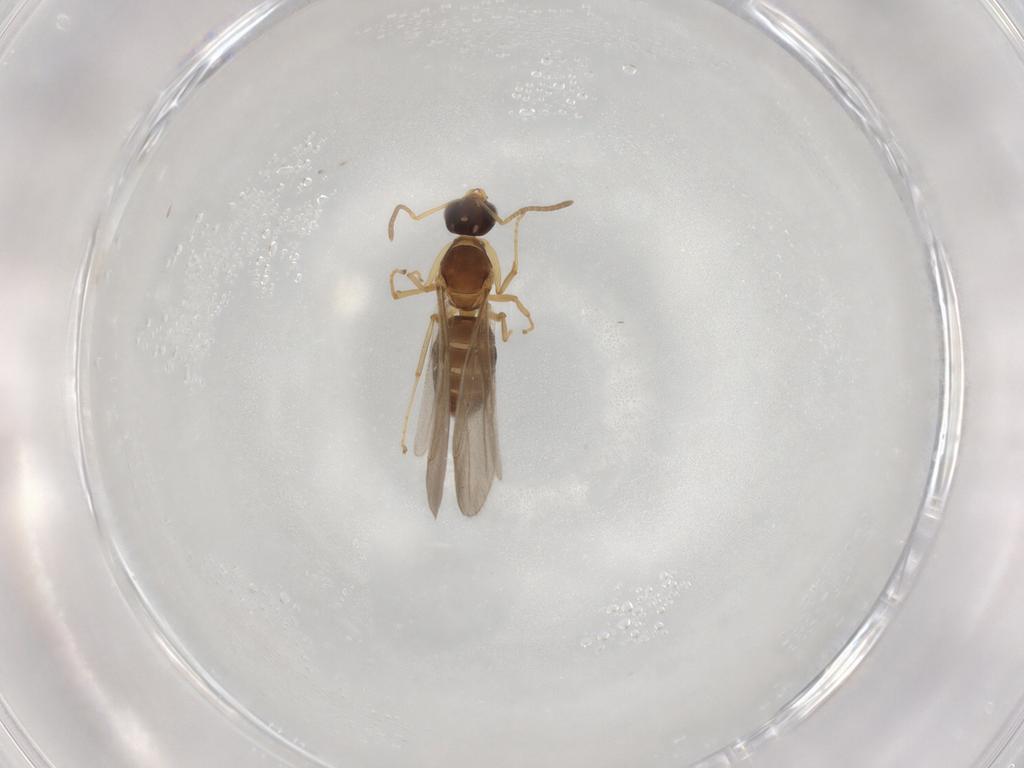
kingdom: Animalia
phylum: Arthropoda
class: Insecta
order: Hymenoptera
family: Formicidae
